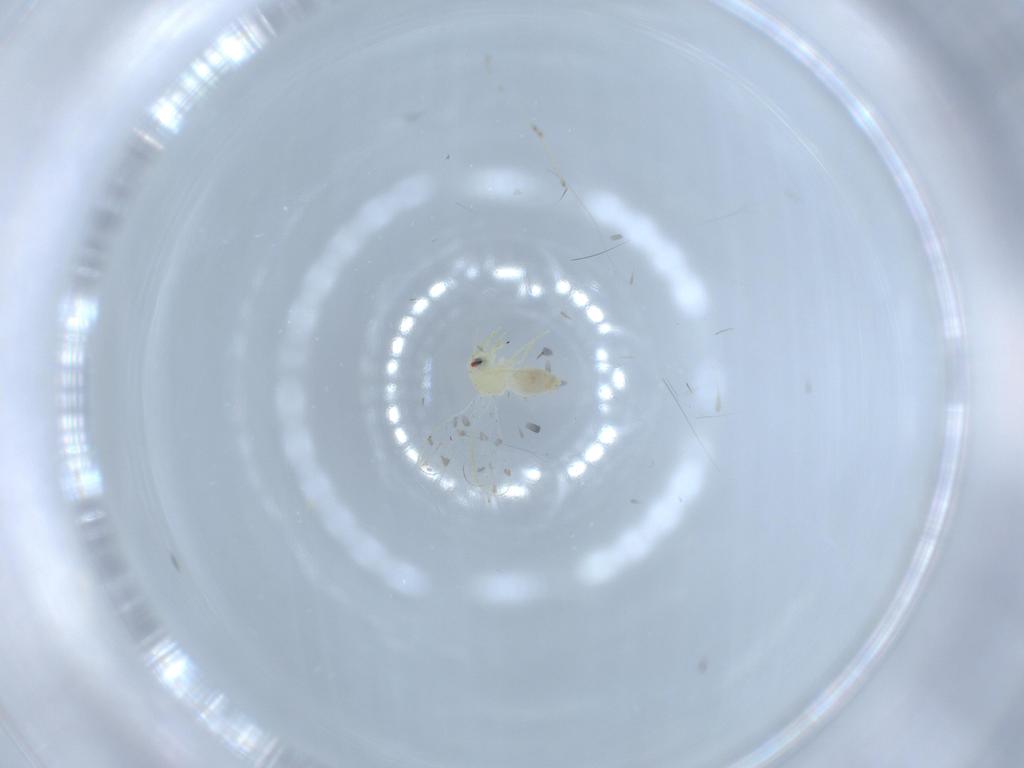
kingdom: Animalia
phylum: Arthropoda
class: Insecta
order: Hemiptera
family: Aleyrodidae
